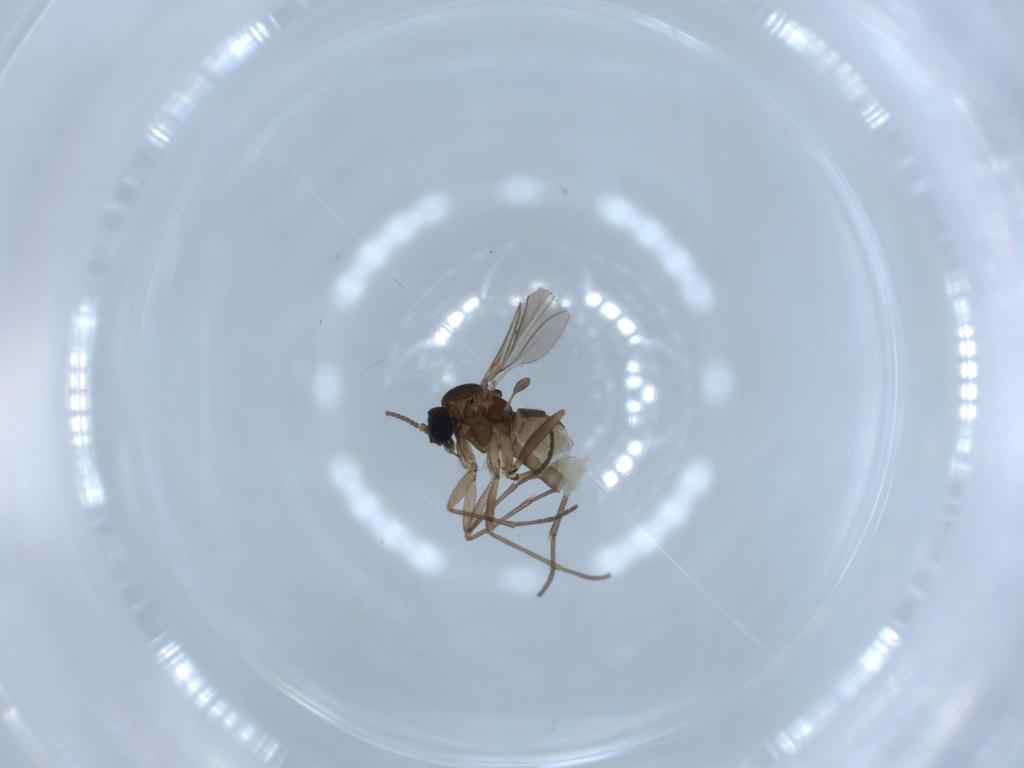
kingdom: Animalia
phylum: Arthropoda
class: Insecta
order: Diptera
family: Sciaridae
